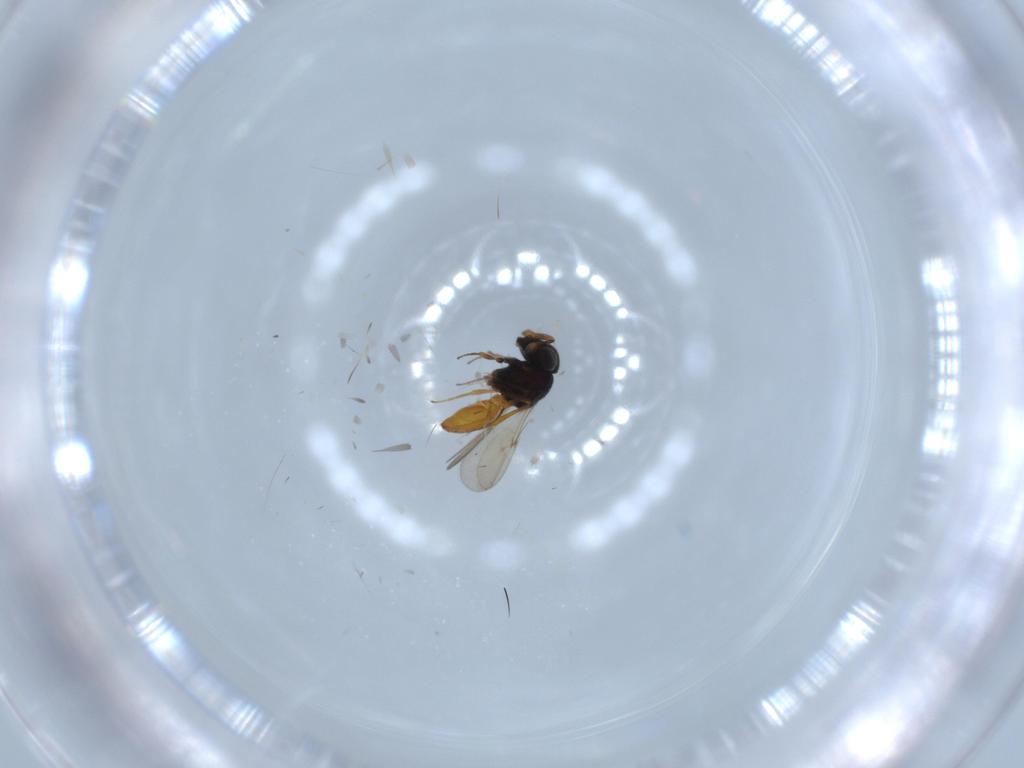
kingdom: Animalia
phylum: Arthropoda
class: Insecta
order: Hymenoptera
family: Scelionidae
